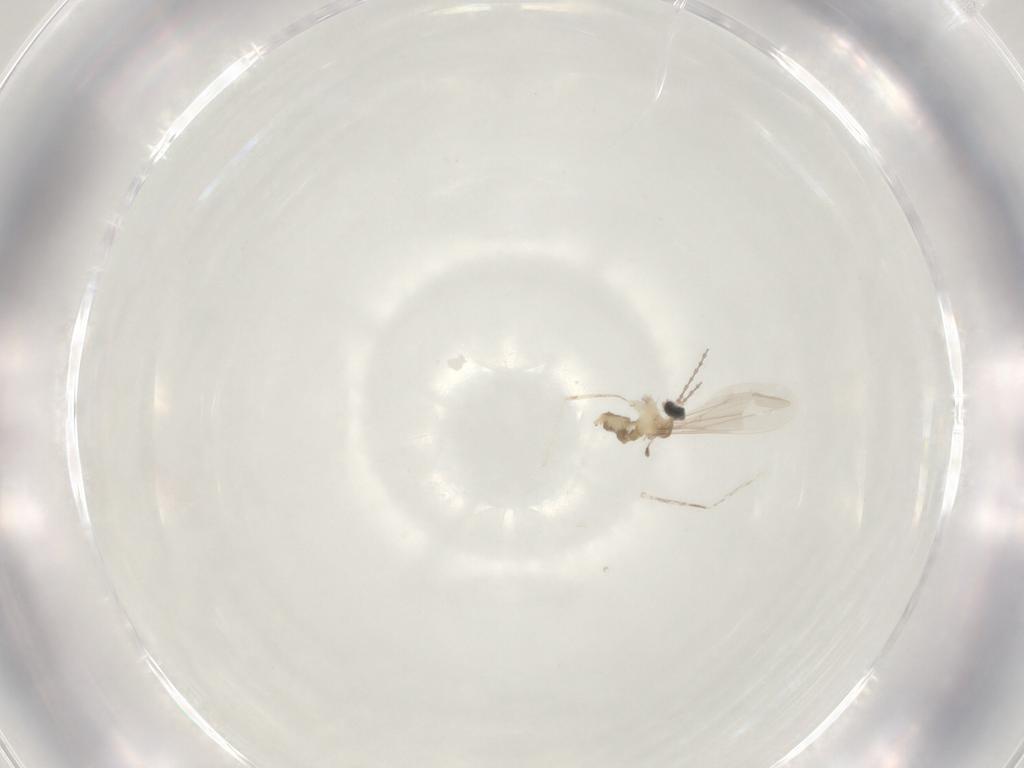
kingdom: Animalia
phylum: Arthropoda
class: Insecta
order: Diptera
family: Cecidomyiidae
